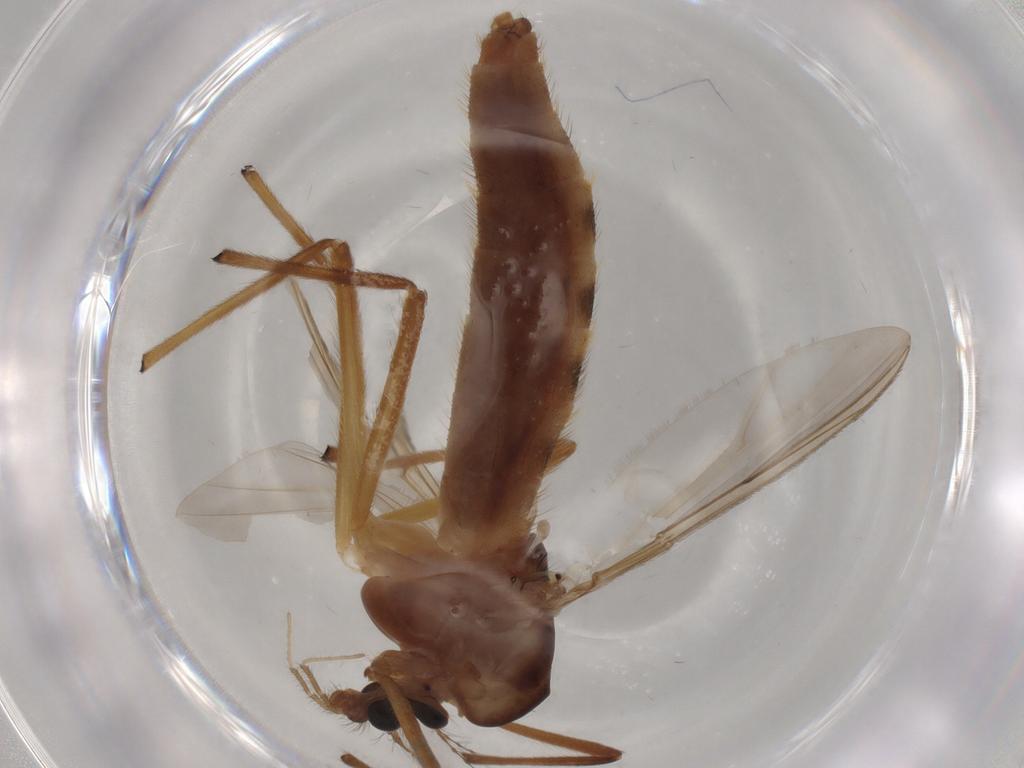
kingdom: Animalia
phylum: Arthropoda
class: Insecta
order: Diptera
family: Chironomidae
